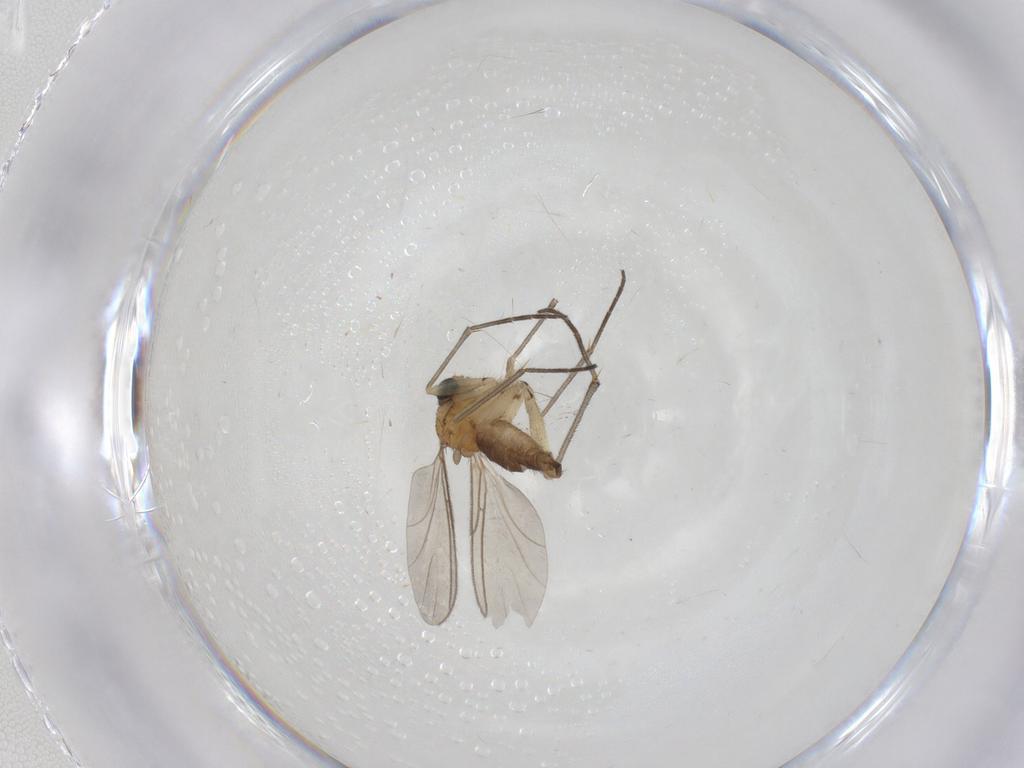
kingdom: Animalia
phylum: Arthropoda
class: Insecta
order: Diptera
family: Sciaridae
